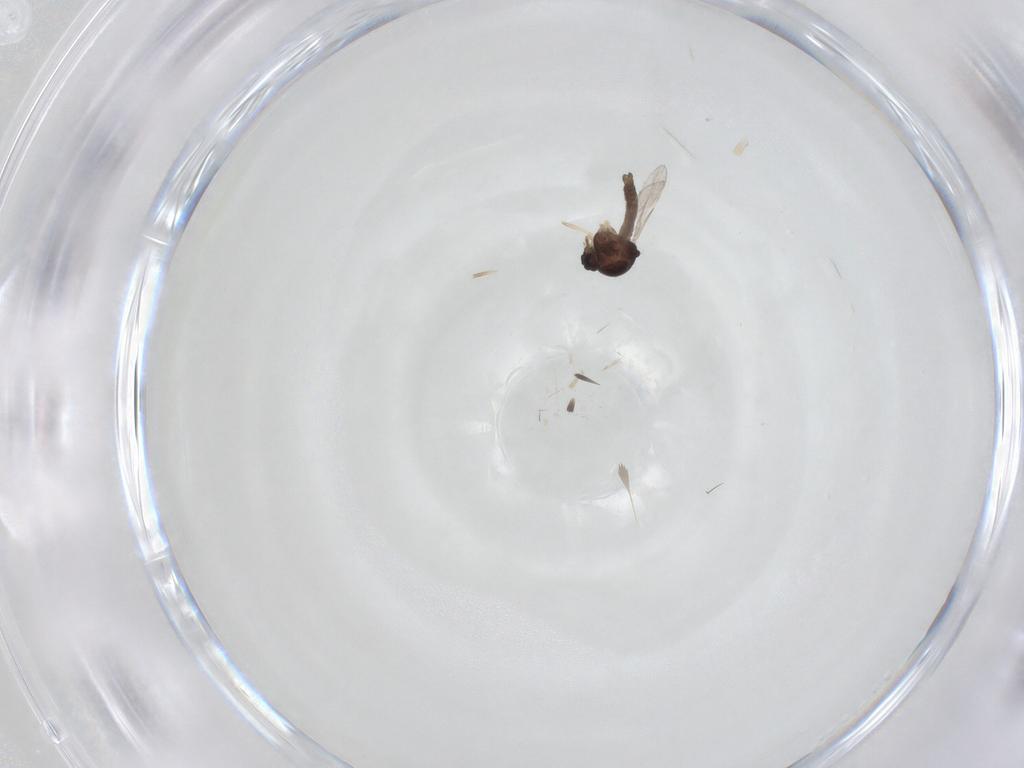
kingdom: Animalia
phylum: Arthropoda
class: Insecta
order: Diptera
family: Ceratopogonidae
